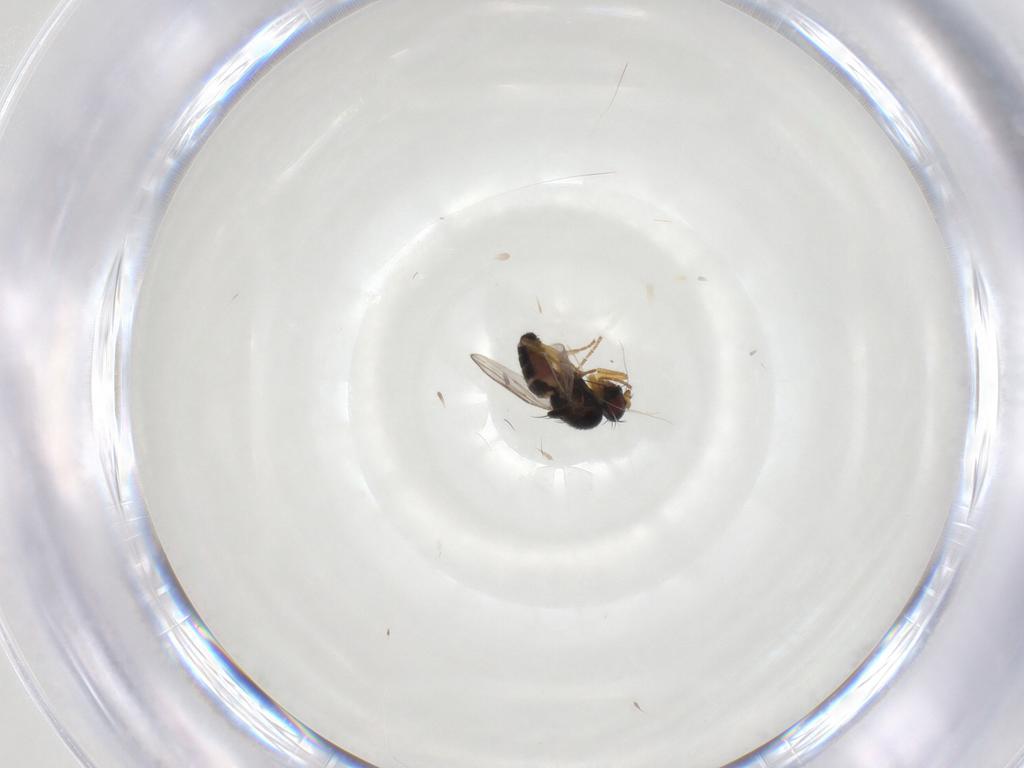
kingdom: Animalia
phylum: Arthropoda
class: Insecta
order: Diptera
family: Sphaeroceridae
